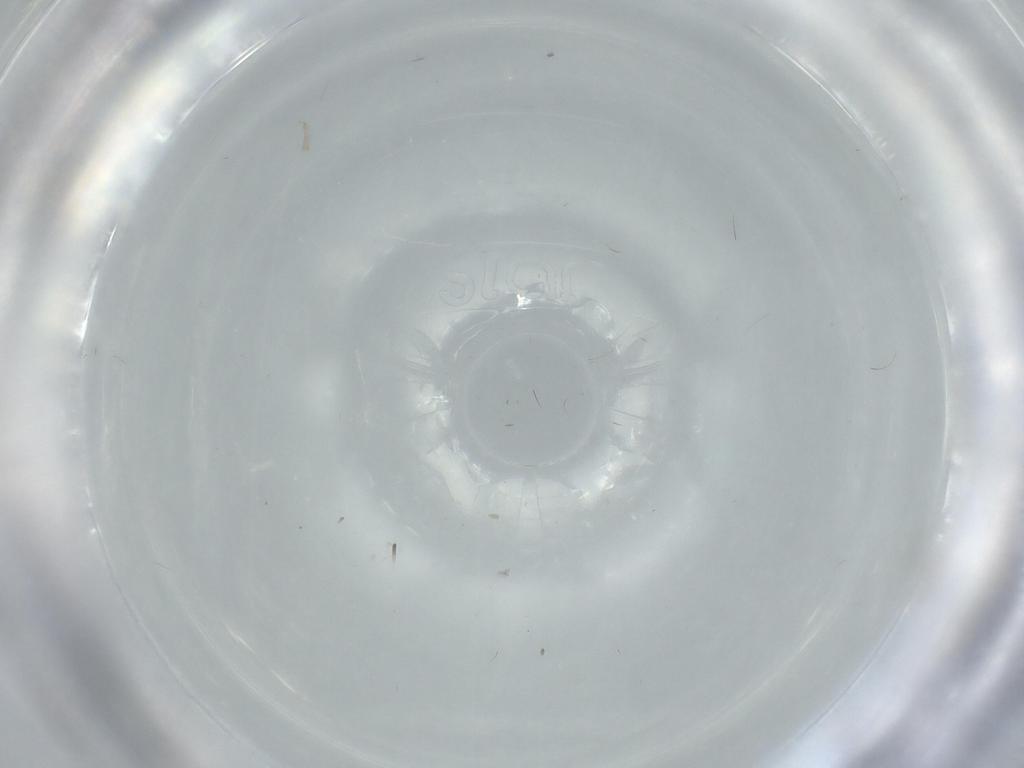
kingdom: Animalia
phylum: Arthropoda
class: Insecta
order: Diptera
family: Cecidomyiidae
